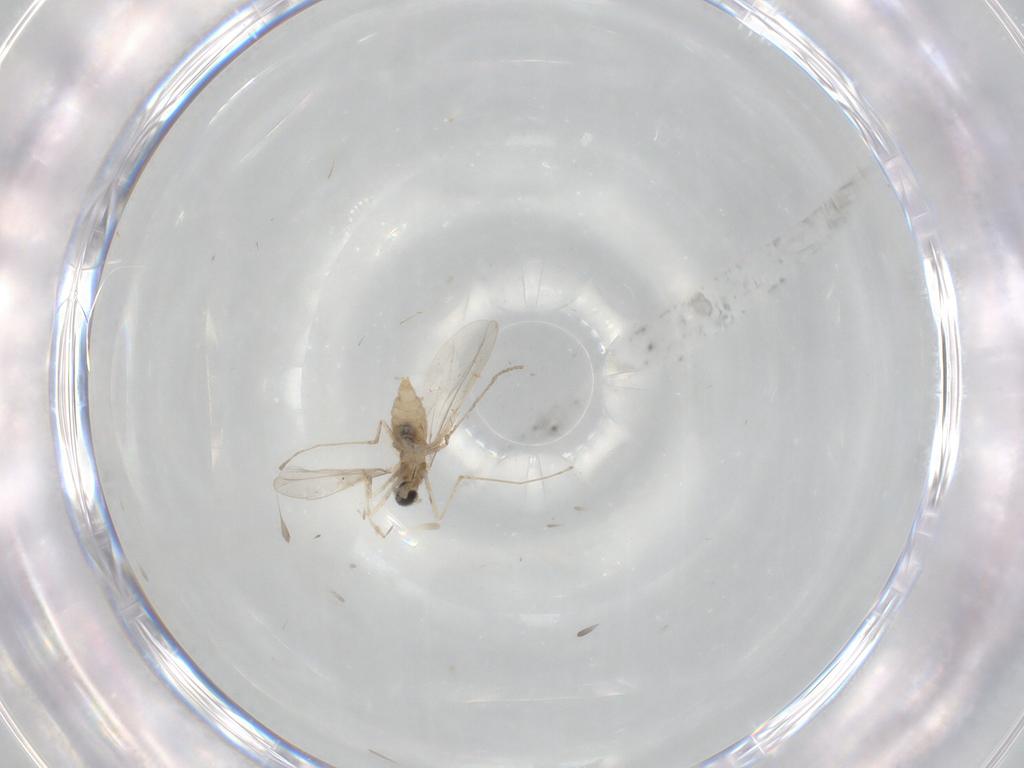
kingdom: Animalia
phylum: Arthropoda
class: Insecta
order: Diptera
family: Cecidomyiidae
